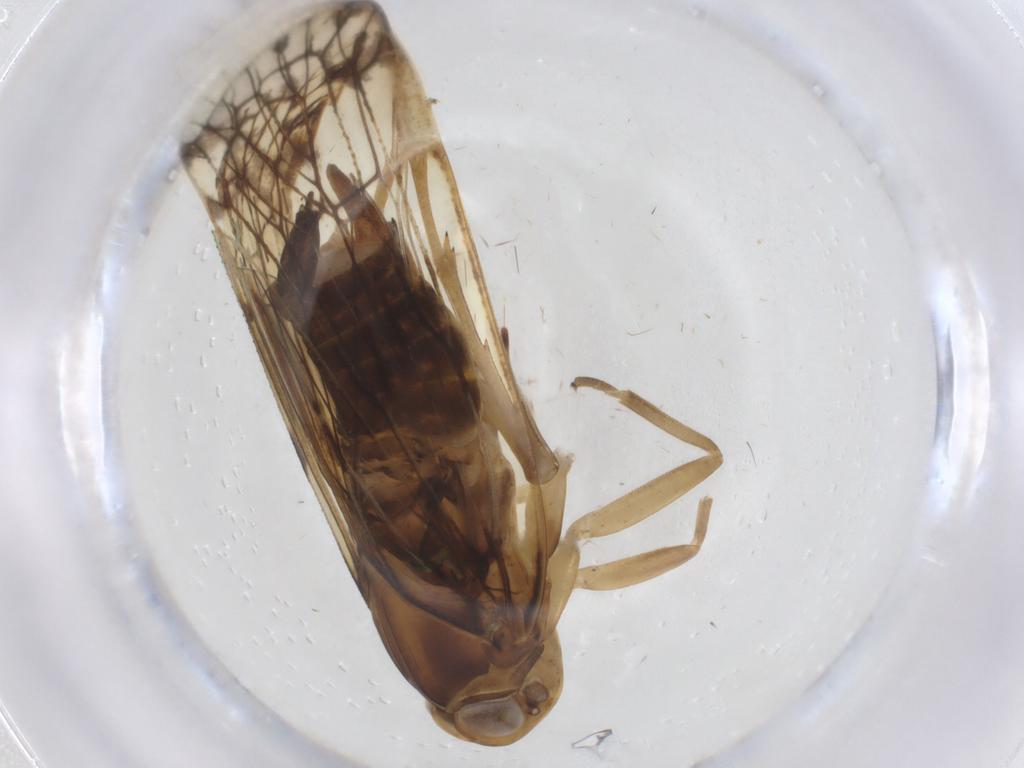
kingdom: Animalia
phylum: Arthropoda
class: Insecta
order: Hemiptera
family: Cixiidae
